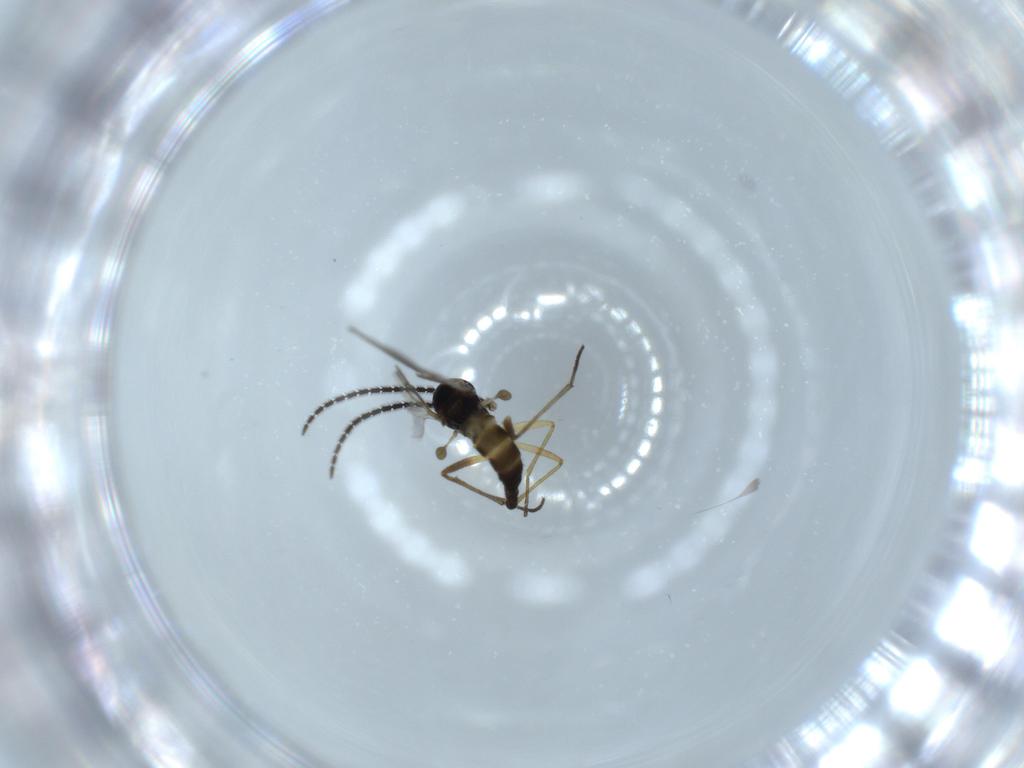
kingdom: Animalia
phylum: Arthropoda
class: Insecta
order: Diptera
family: Sciaridae
